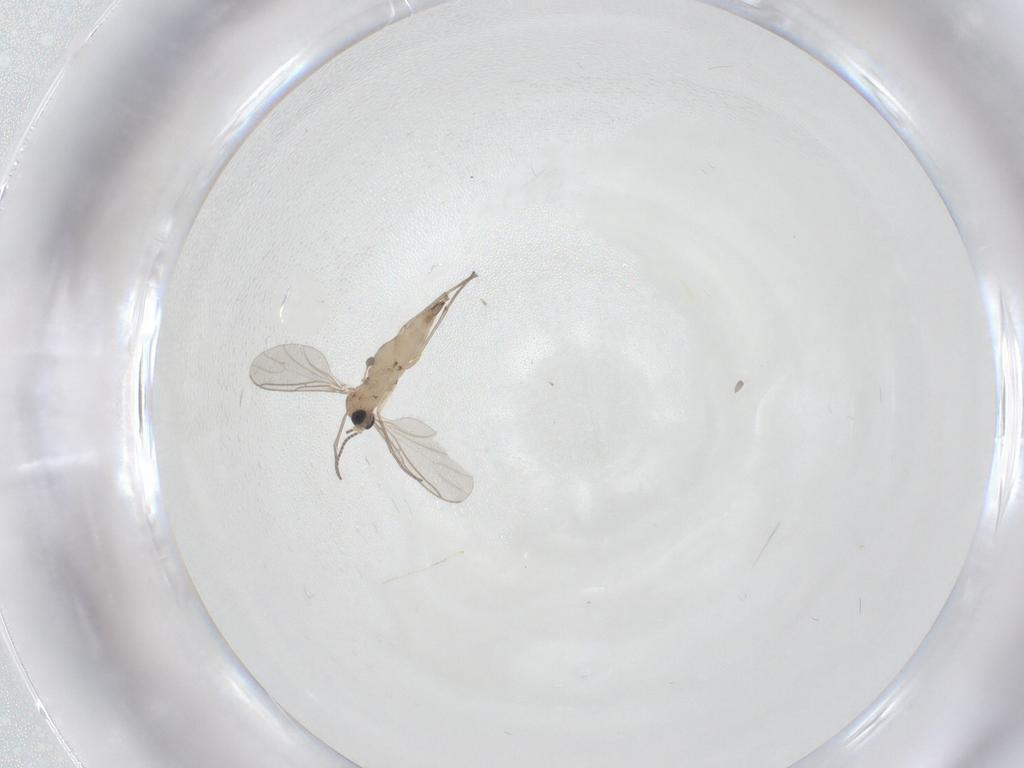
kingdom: Animalia
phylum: Arthropoda
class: Insecta
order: Diptera
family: Sciaridae
